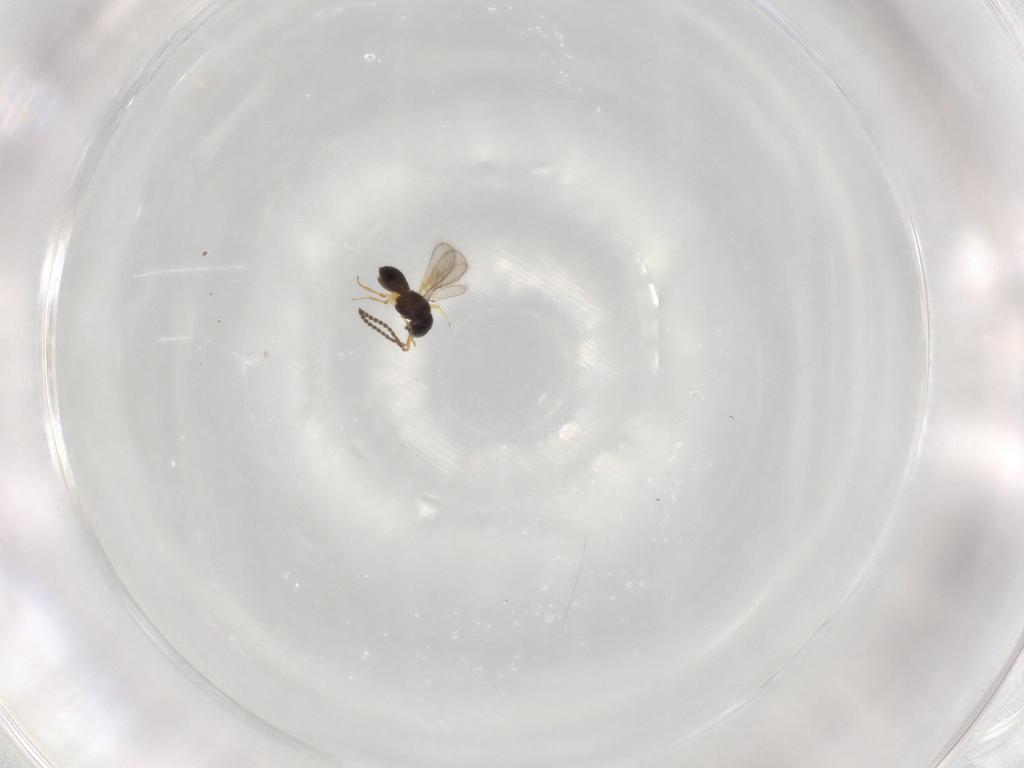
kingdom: Animalia
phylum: Arthropoda
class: Insecta
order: Hymenoptera
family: Scelionidae
